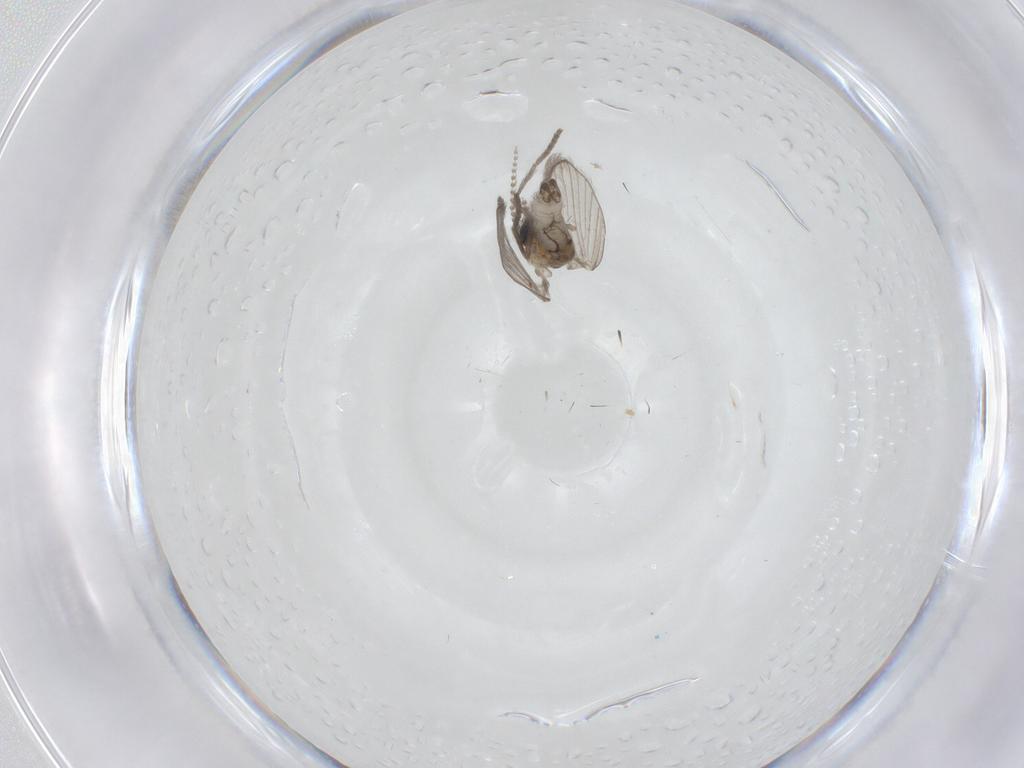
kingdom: Animalia
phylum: Arthropoda
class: Insecta
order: Diptera
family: Psychodidae
